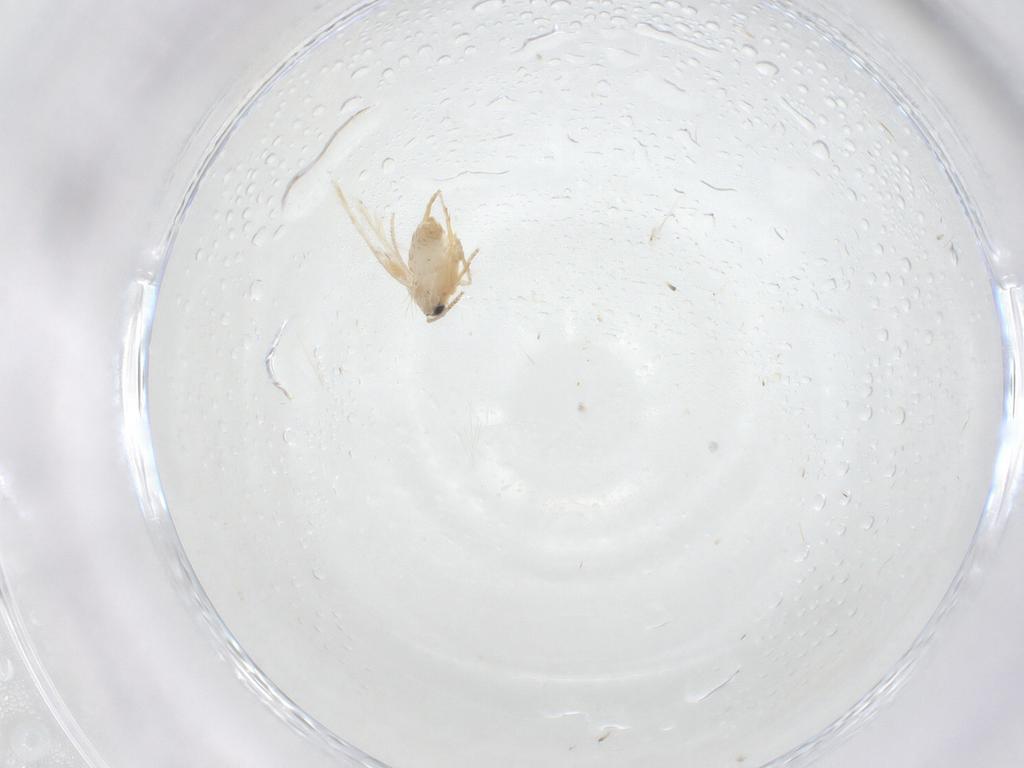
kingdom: Animalia
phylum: Arthropoda
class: Insecta
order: Lepidoptera
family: Nepticulidae
